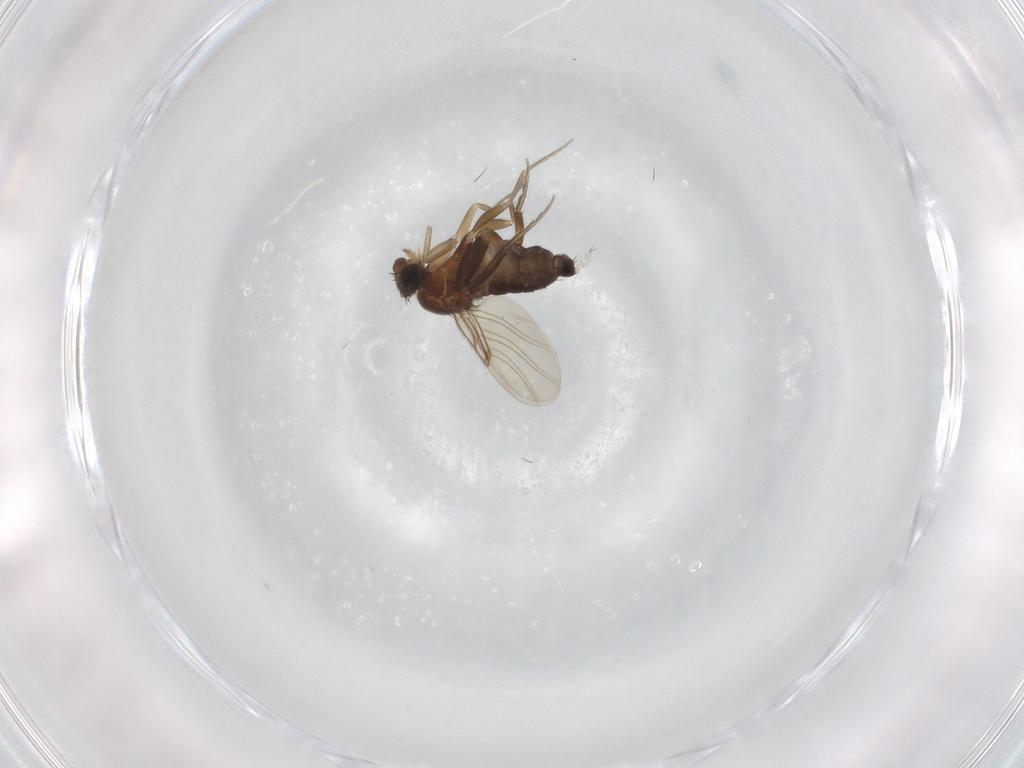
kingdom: Animalia
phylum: Arthropoda
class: Insecta
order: Diptera
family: Phoridae
